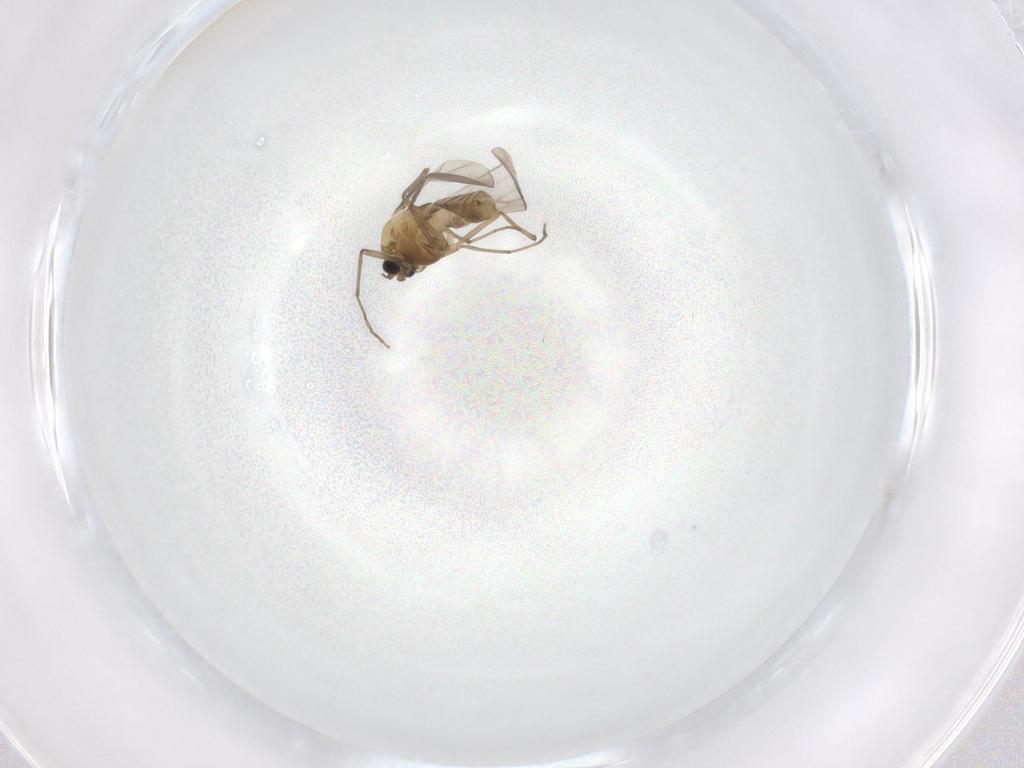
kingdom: Animalia
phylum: Arthropoda
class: Insecta
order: Diptera
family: Chironomidae
